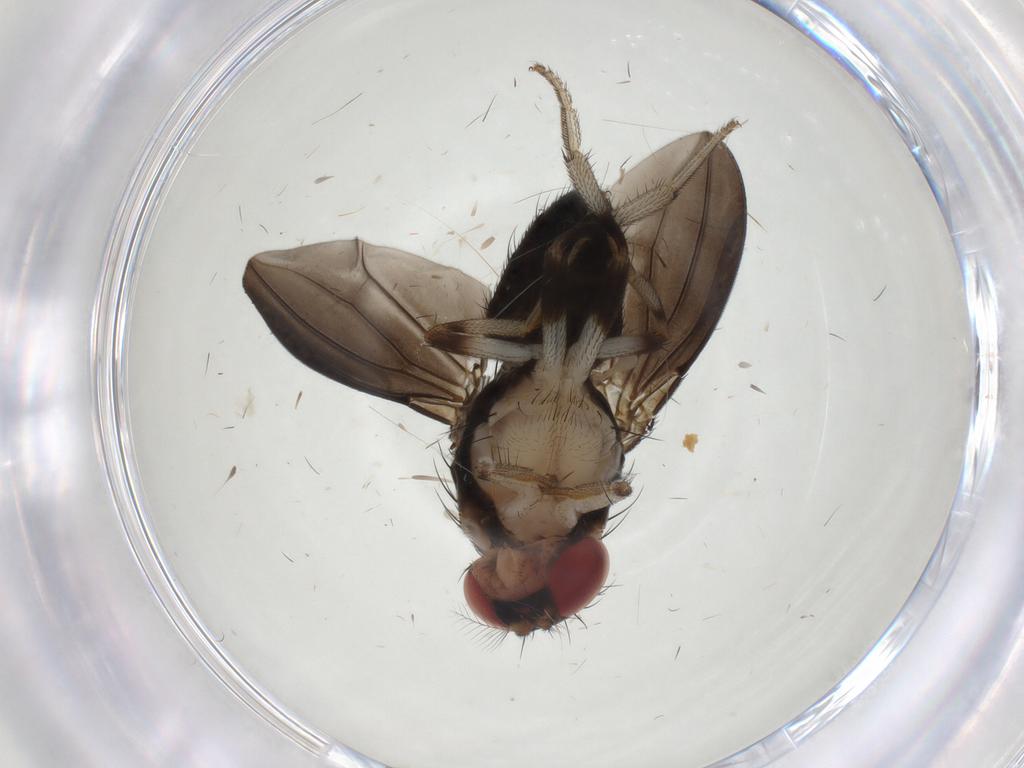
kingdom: Animalia
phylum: Arthropoda
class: Insecta
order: Diptera
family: Drosophilidae
